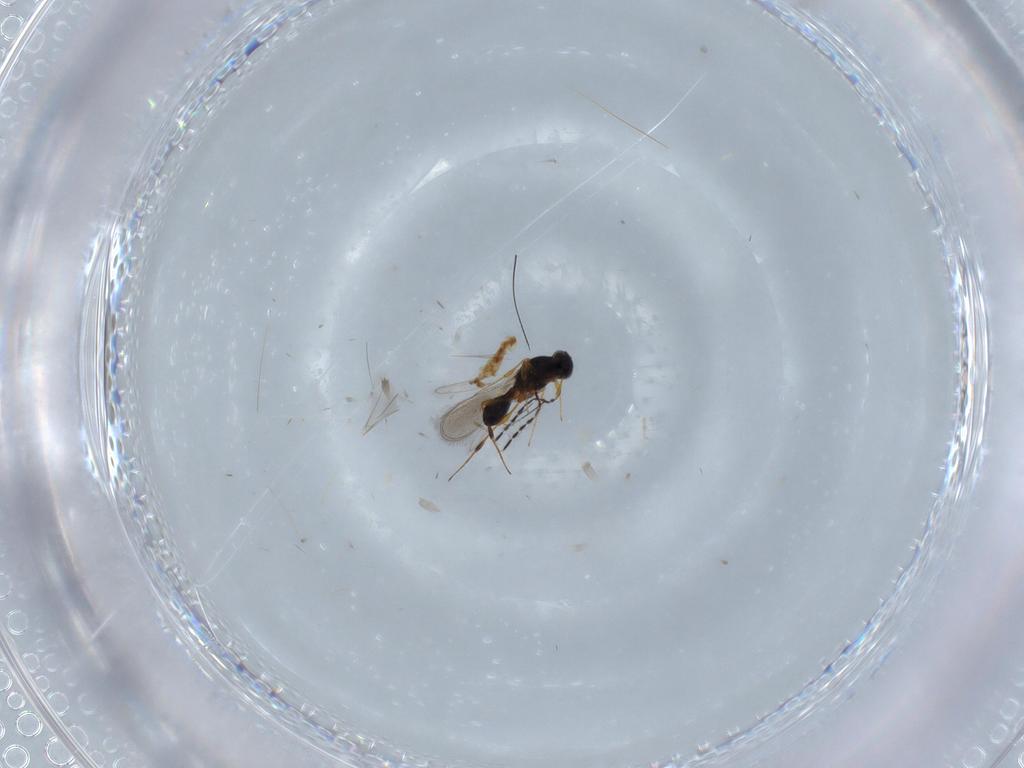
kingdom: Animalia
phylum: Arthropoda
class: Insecta
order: Hymenoptera
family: Platygastridae
